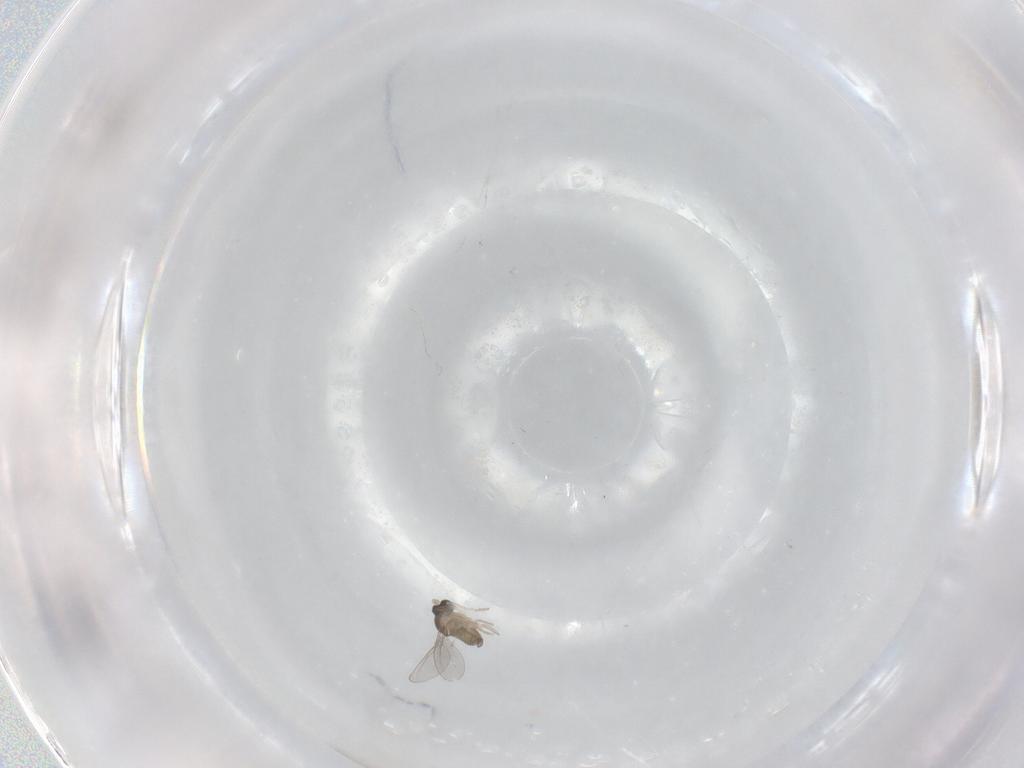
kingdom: Animalia
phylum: Arthropoda
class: Insecta
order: Diptera
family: Cecidomyiidae
